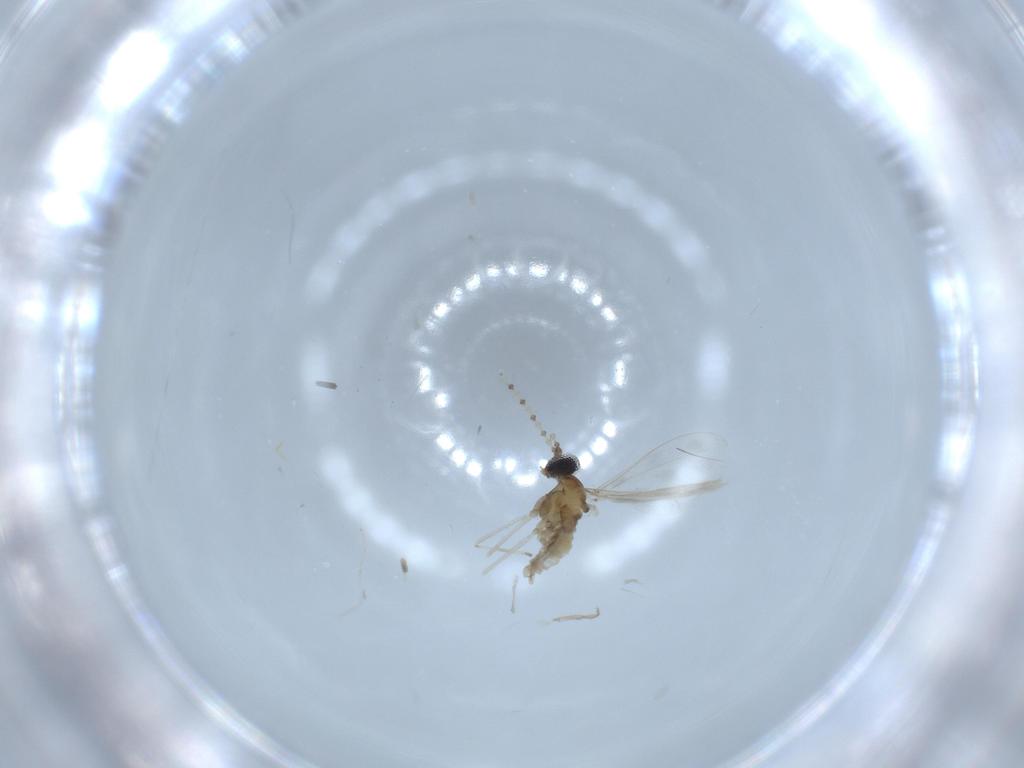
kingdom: Animalia
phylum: Arthropoda
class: Insecta
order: Diptera
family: Cecidomyiidae
